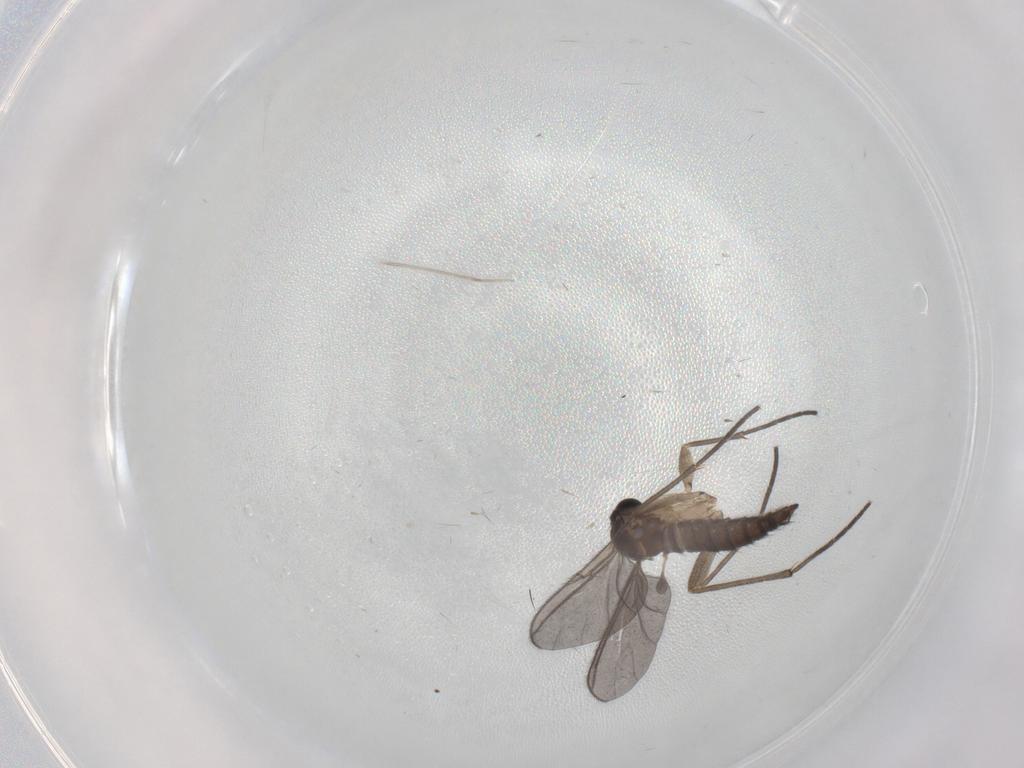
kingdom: Animalia
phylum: Arthropoda
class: Insecta
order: Diptera
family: Sciaridae
